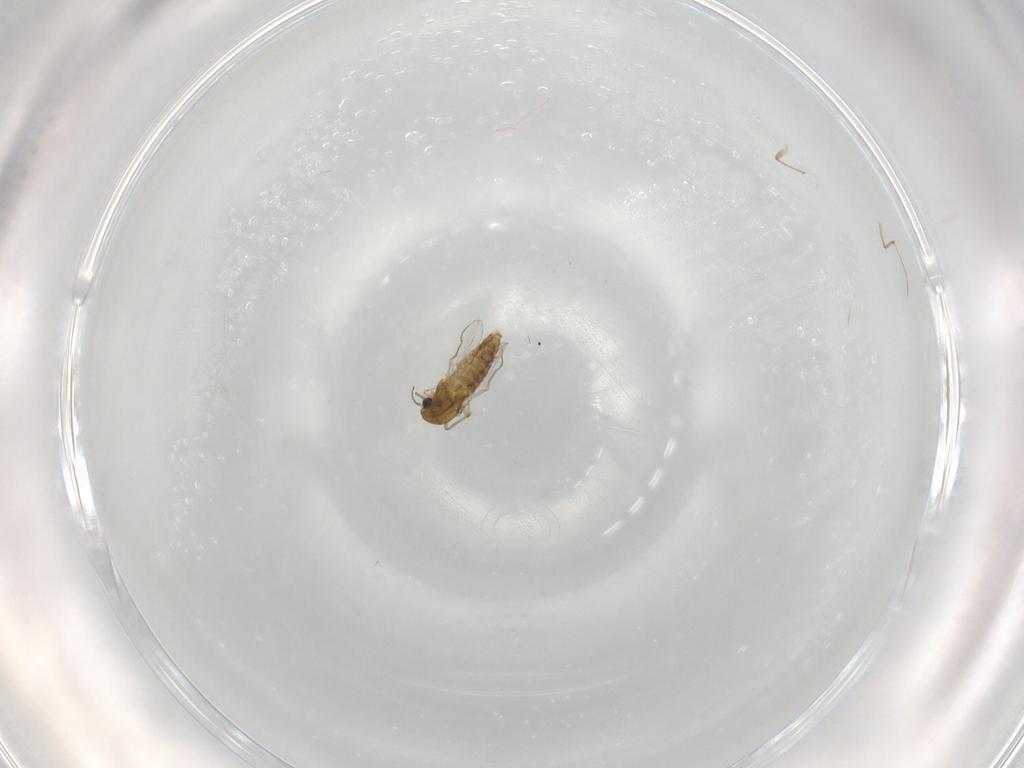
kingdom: Animalia
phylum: Arthropoda
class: Insecta
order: Diptera
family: Chironomidae
